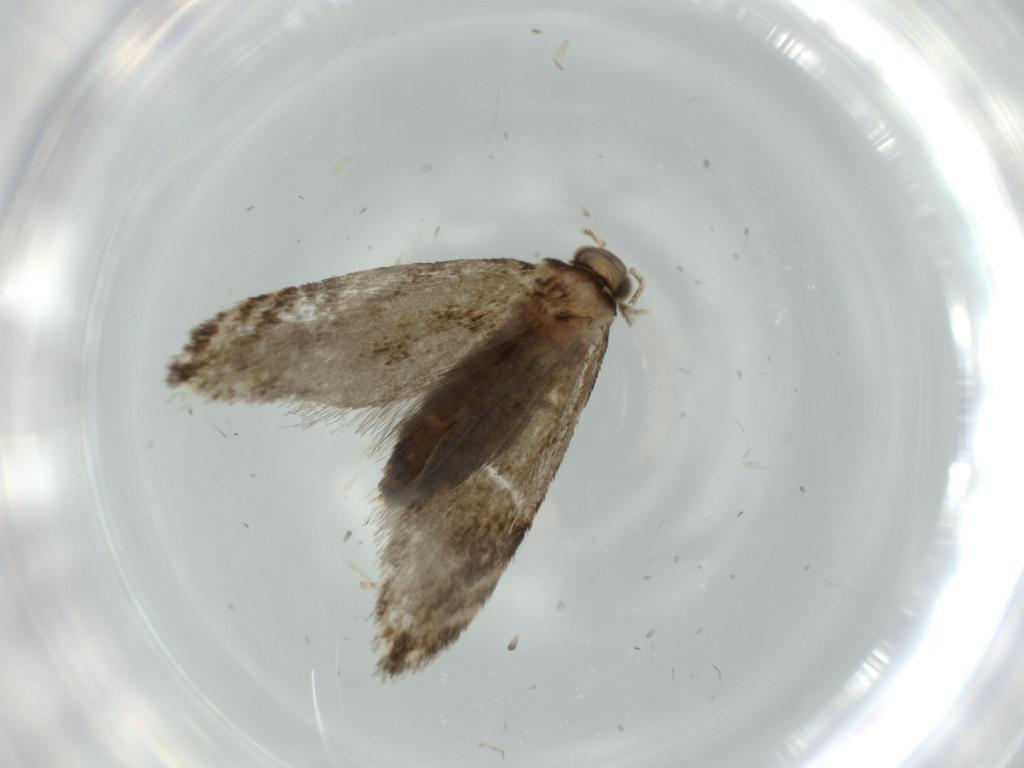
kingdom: Animalia
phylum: Arthropoda
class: Insecta
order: Lepidoptera
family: Tineidae
